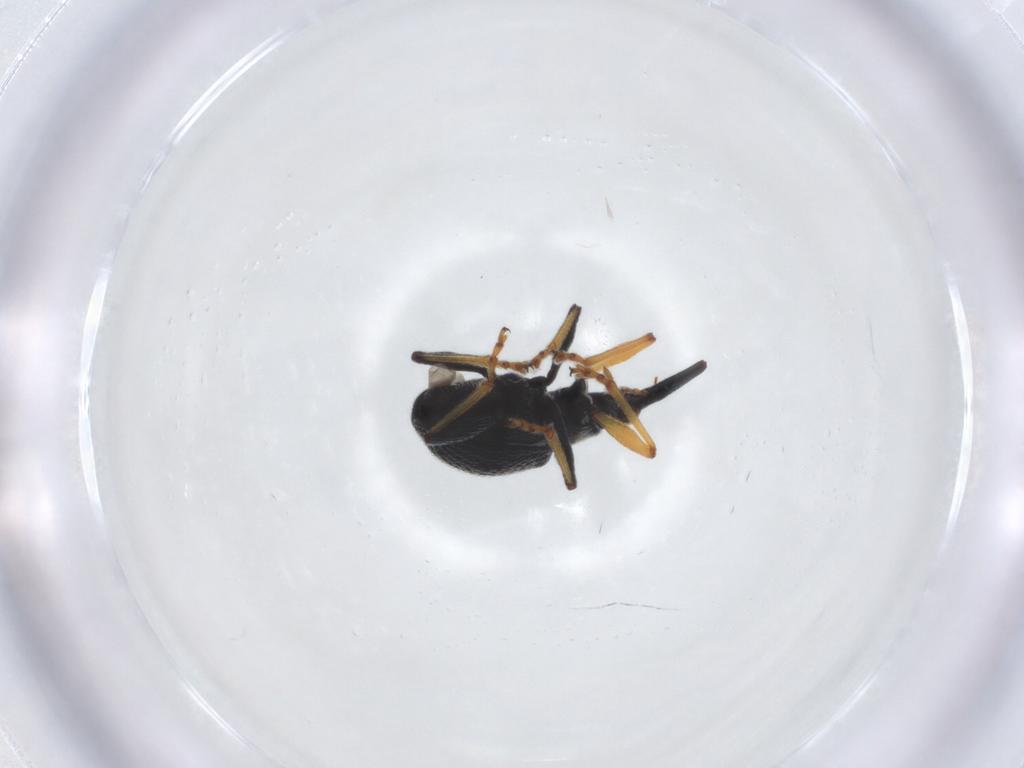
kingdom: Animalia
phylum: Arthropoda
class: Insecta
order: Coleoptera
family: Brentidae
